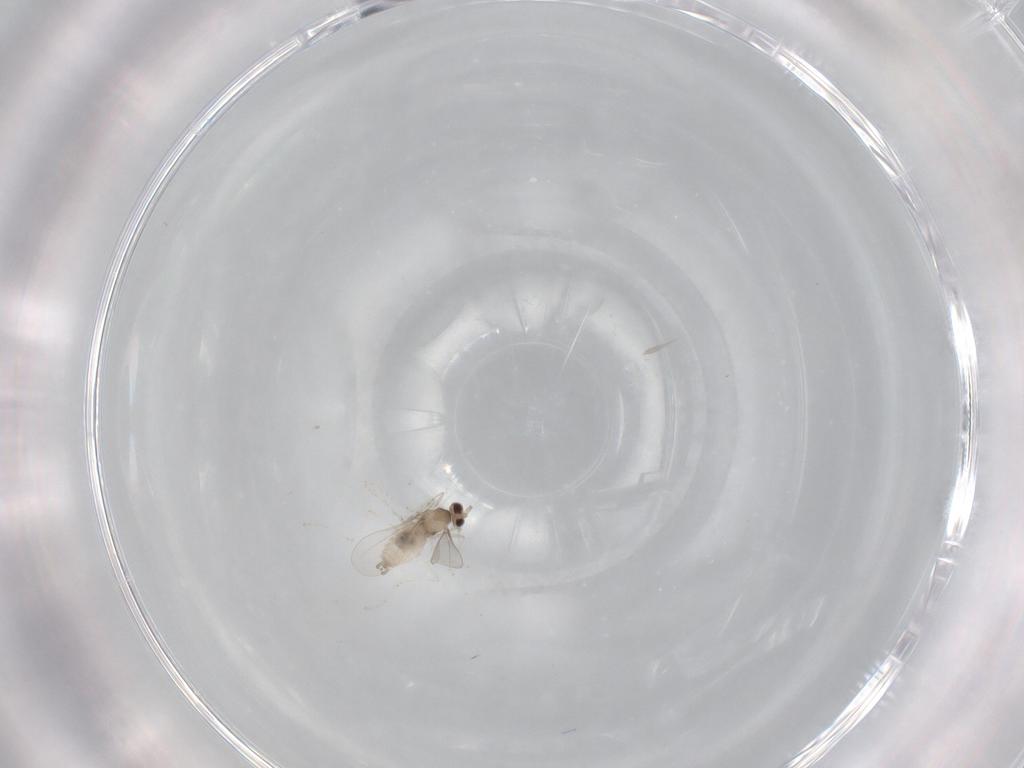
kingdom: Animalia
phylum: Arthropoda
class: Insecta
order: Diptera
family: Cecidomyiidae
